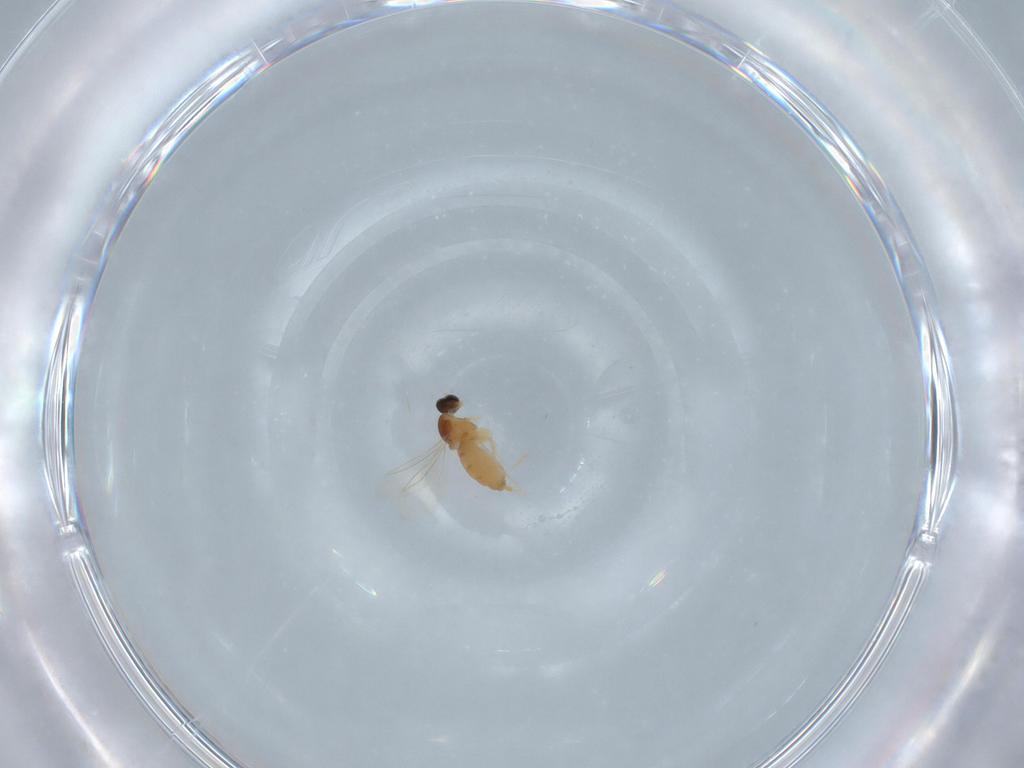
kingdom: Animalia
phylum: Arthropoda
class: Insecta
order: Diptera
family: Cecidomyiidae
